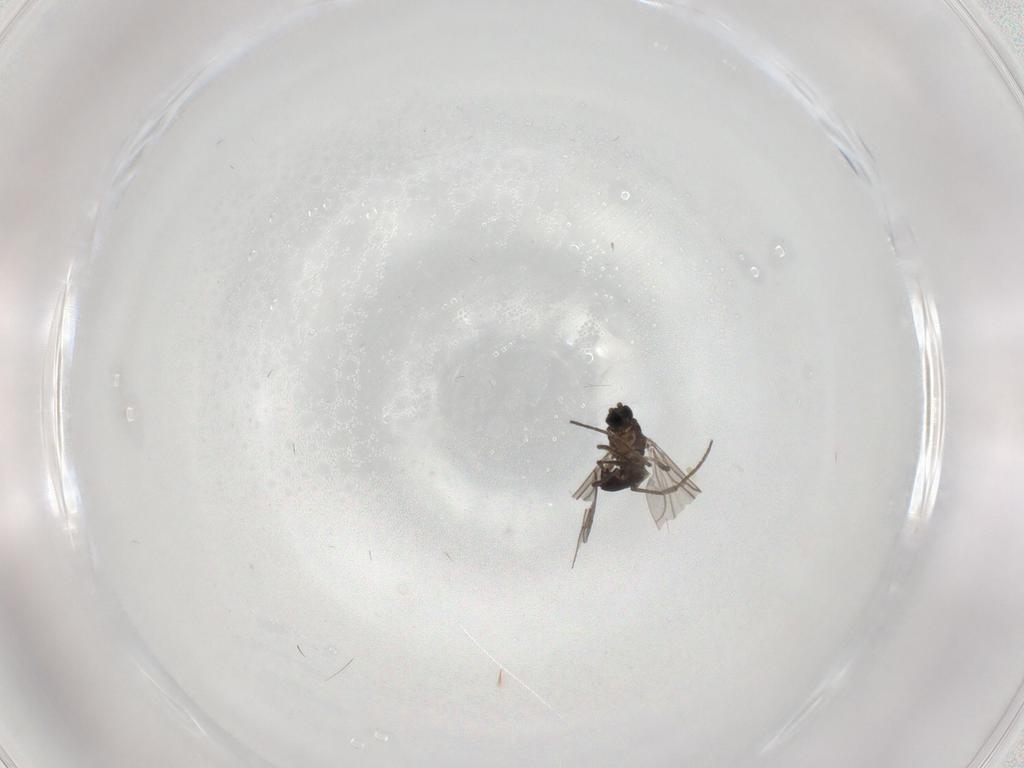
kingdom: Animalia
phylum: Arthropoda
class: Insecta
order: Diptera
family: Sciaridae
